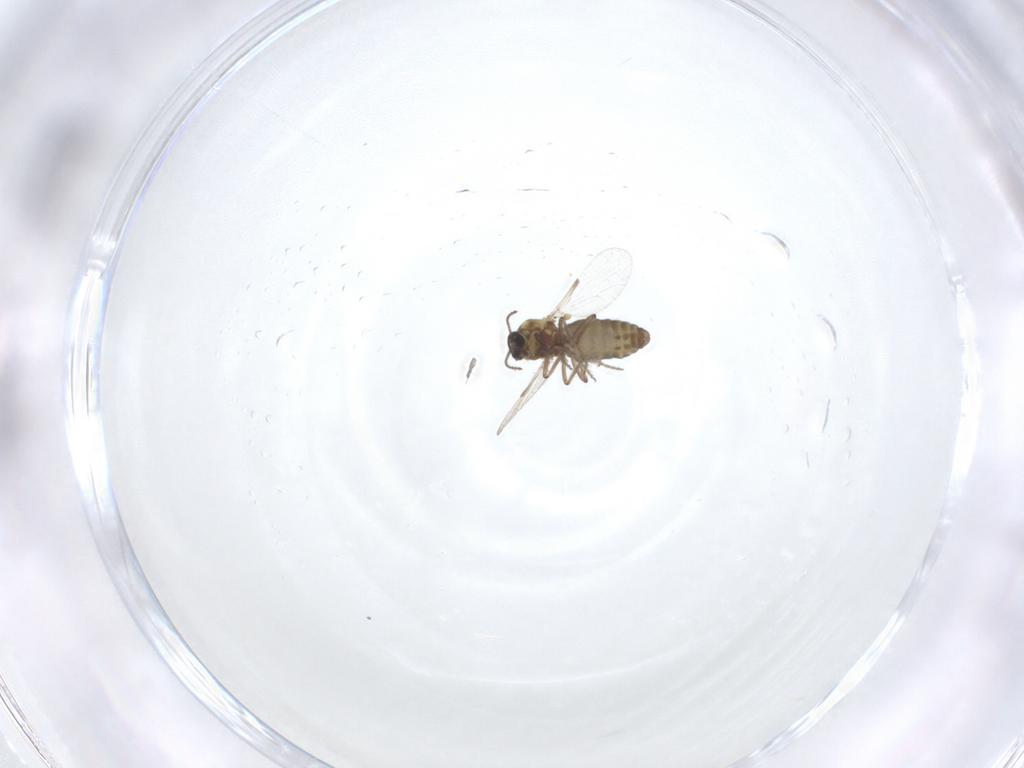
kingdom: Animalia
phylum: Arthropoda
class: Insecta
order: Diptera
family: Ceratopogonidae
